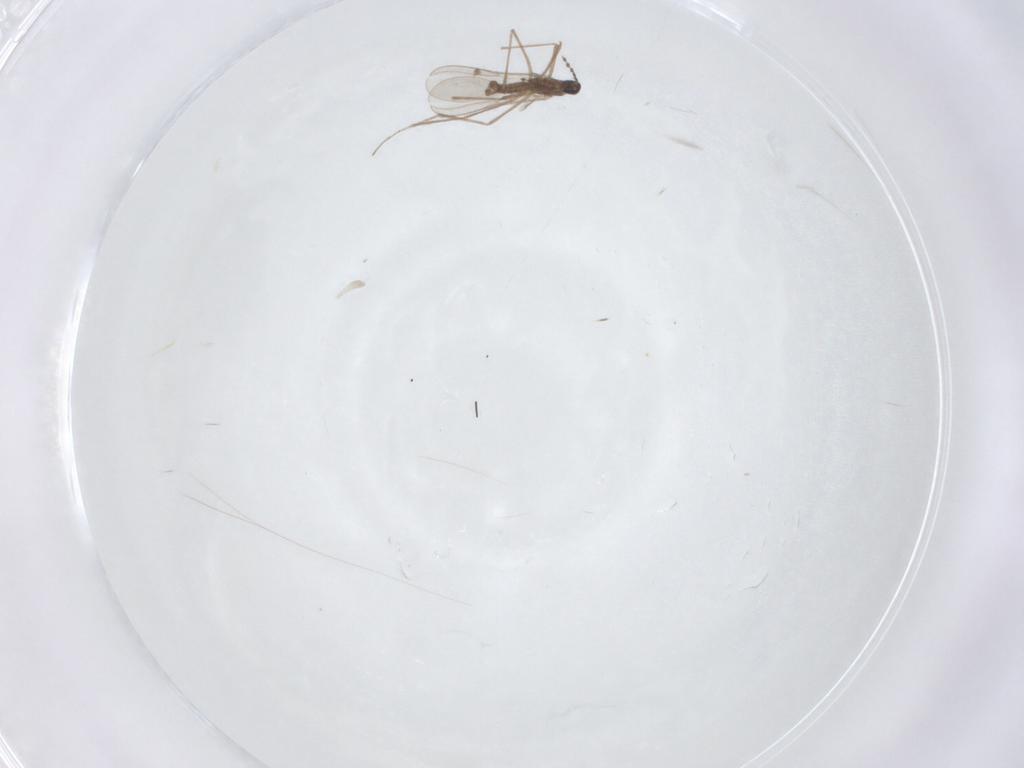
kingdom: Animalia
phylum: Arthropoda
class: Insecta
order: Diptera
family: Cecidomyiidae
